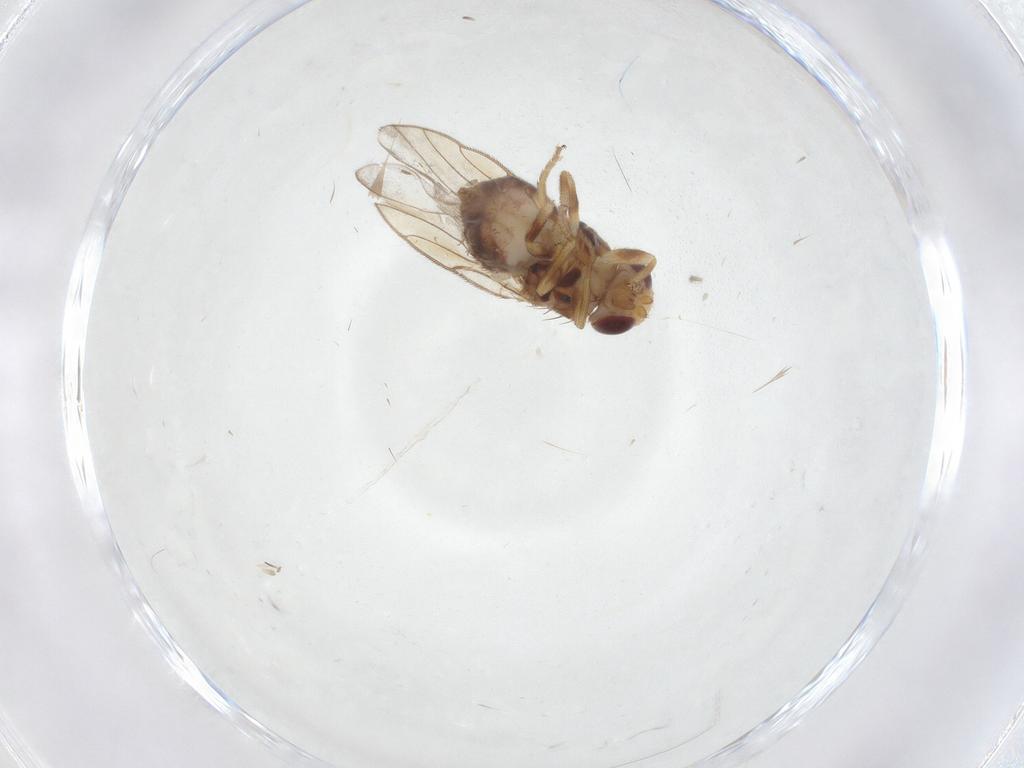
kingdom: Animalia
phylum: Arthropoda
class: Insecta
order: Diptera
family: Chloropidae
